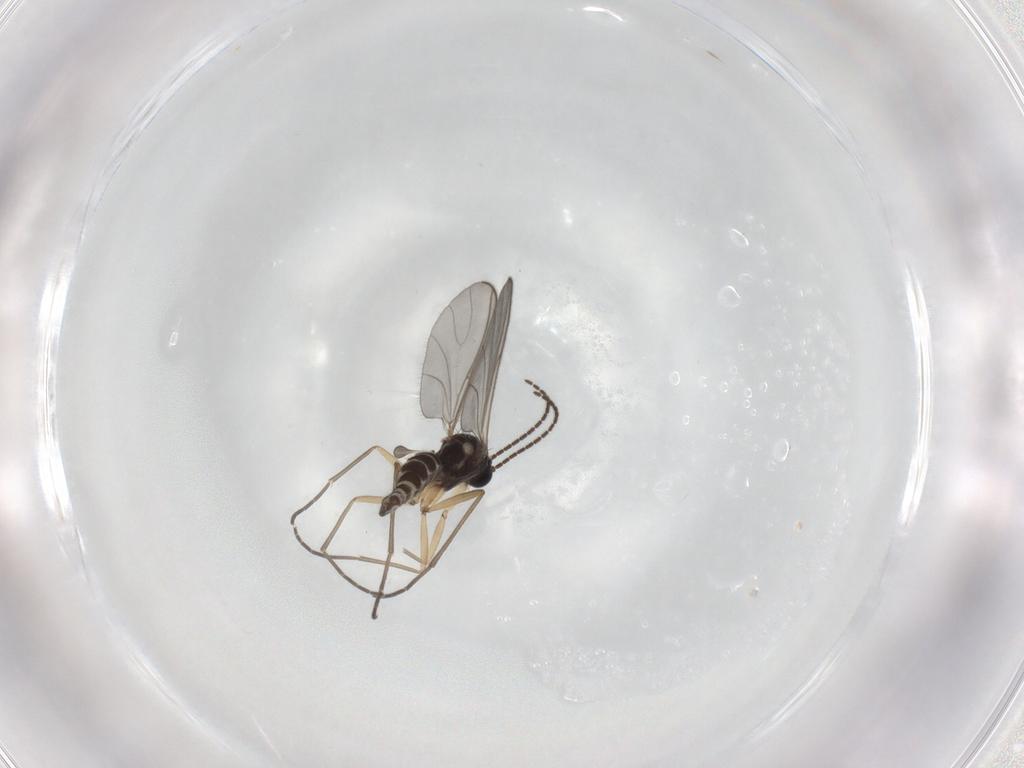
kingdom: Animalia
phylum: Arthropoda
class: Insecta
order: Diptera
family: Sciaridae
